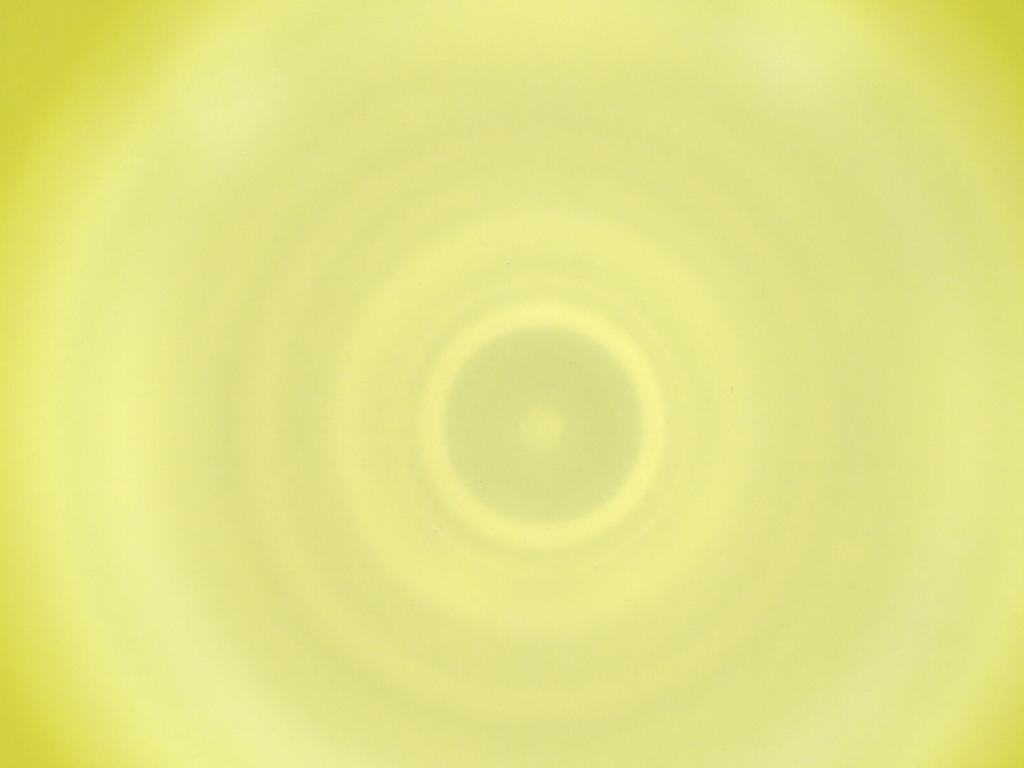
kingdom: Animalia
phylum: Arthropoda
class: Insecta
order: Diptera
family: Cecidomyiidae
